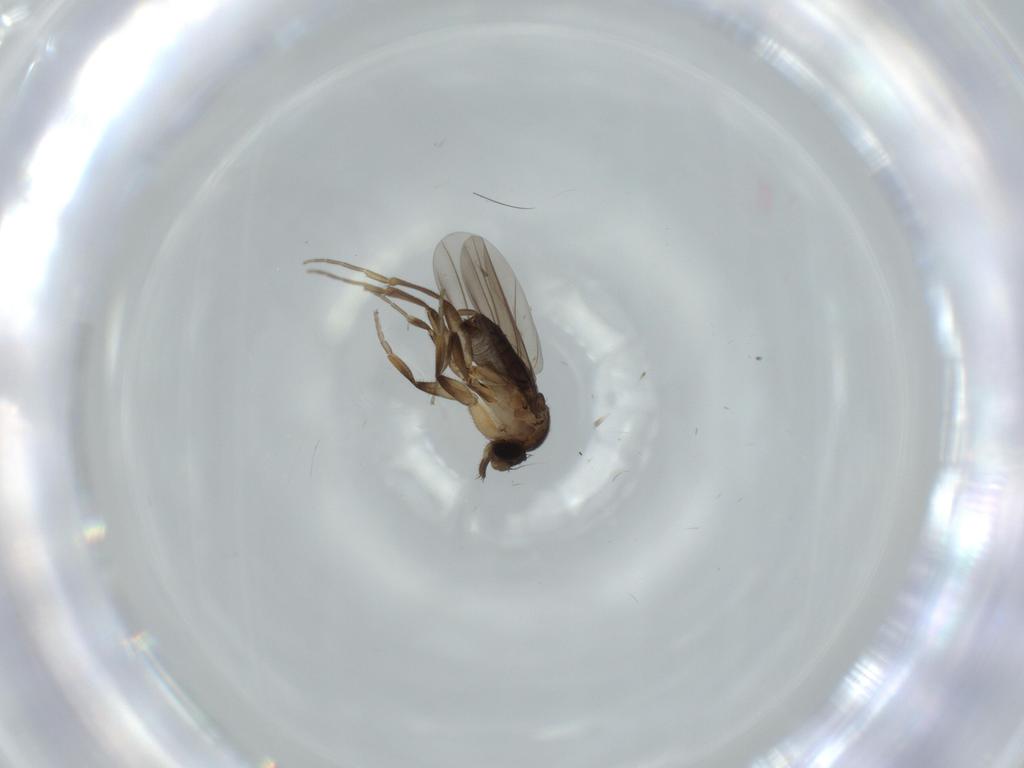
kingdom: Animalia
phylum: Arthropoda
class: Insecta
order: Diptera
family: Phoridae
